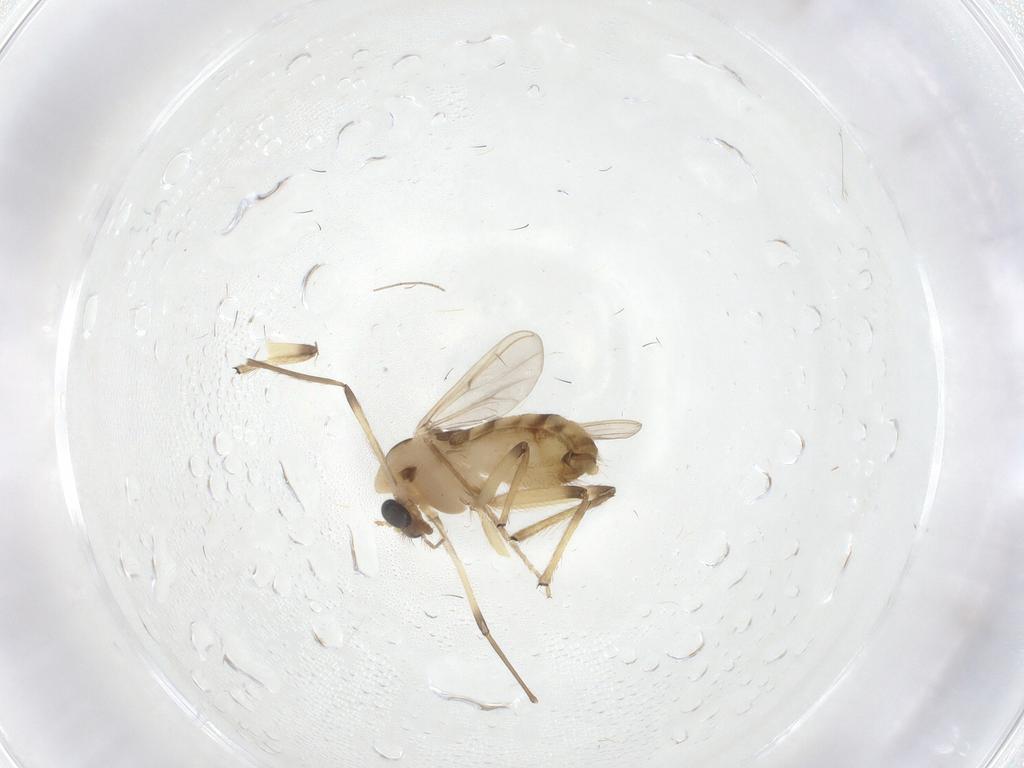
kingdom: Animalia
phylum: Arthropoda
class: Insecta
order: Diptera
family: Chironomidae
